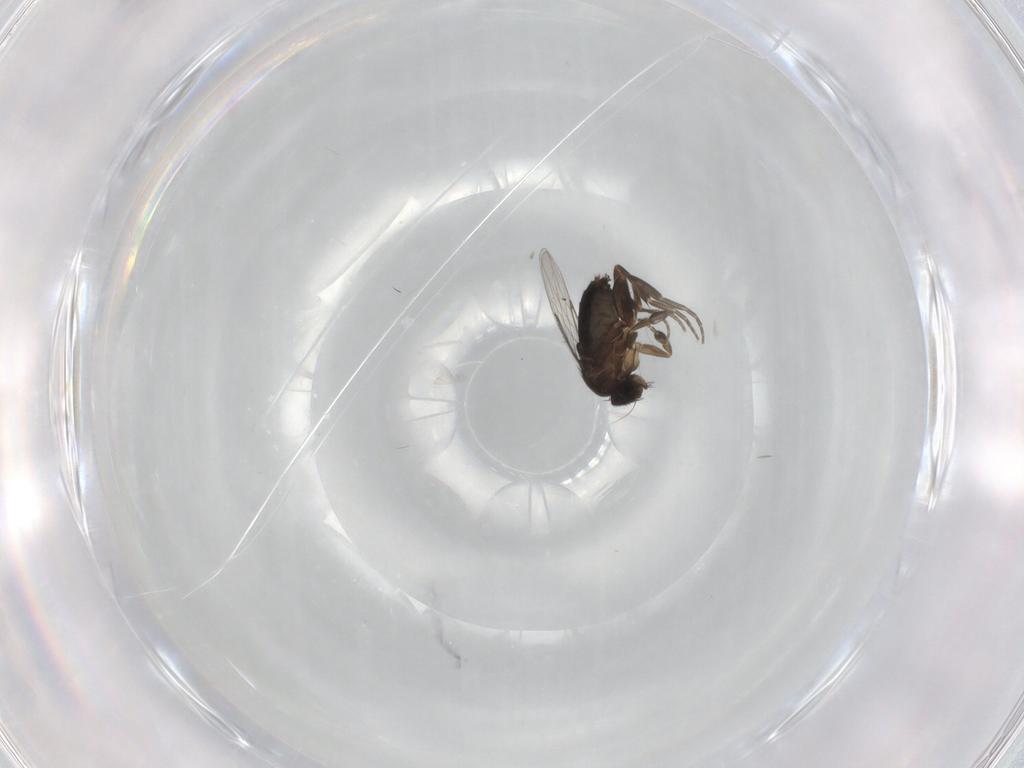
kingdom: Animalia
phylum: Arthropoda
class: Insecta
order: Diptera
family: Phoridae
